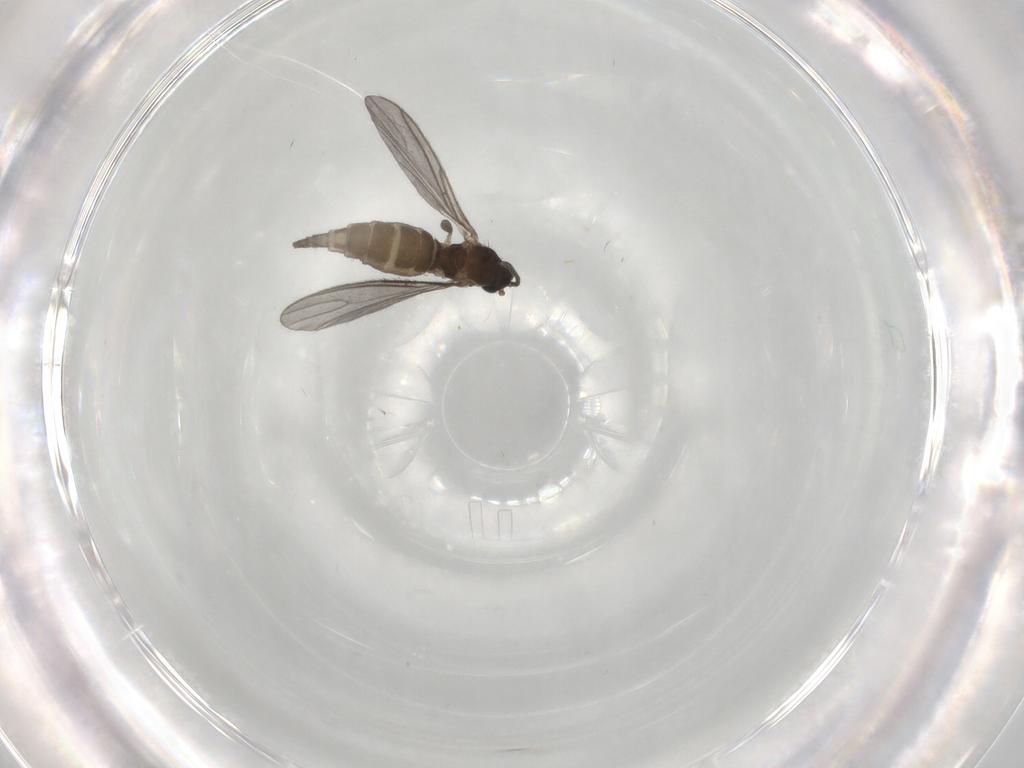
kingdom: Animalia
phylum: Arthropoda
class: Insecta
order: Diptera
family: Sciaridae
